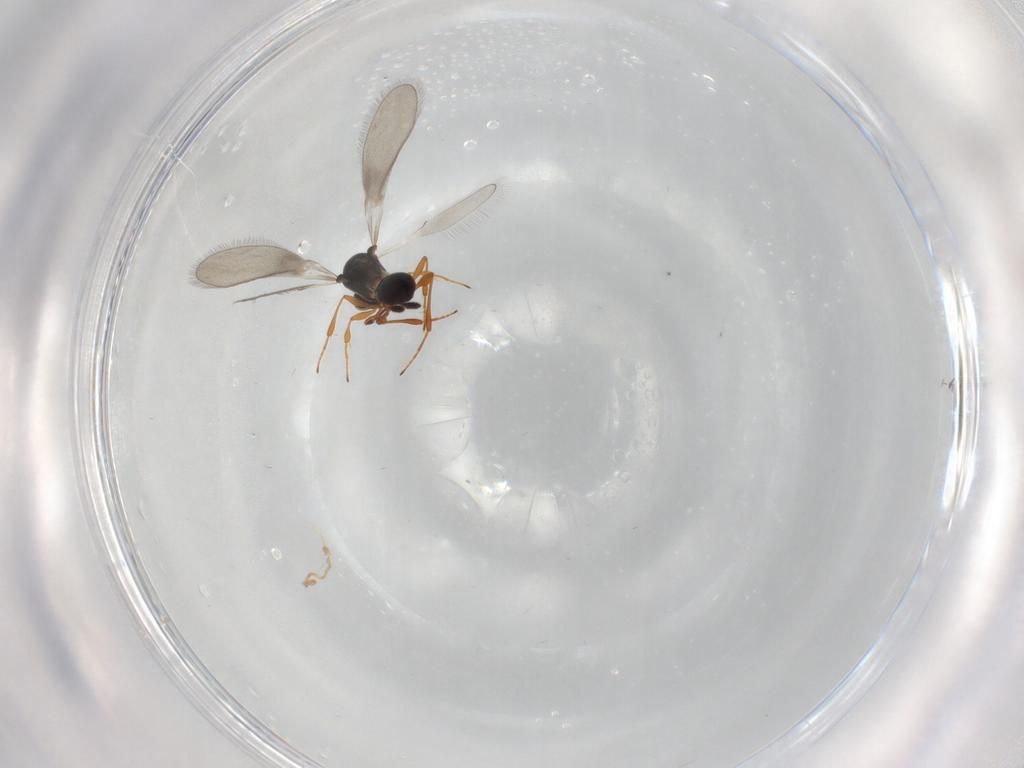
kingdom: Animalia
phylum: Arthropoda
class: Insecta
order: Hymenoptera
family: Platygastridae
